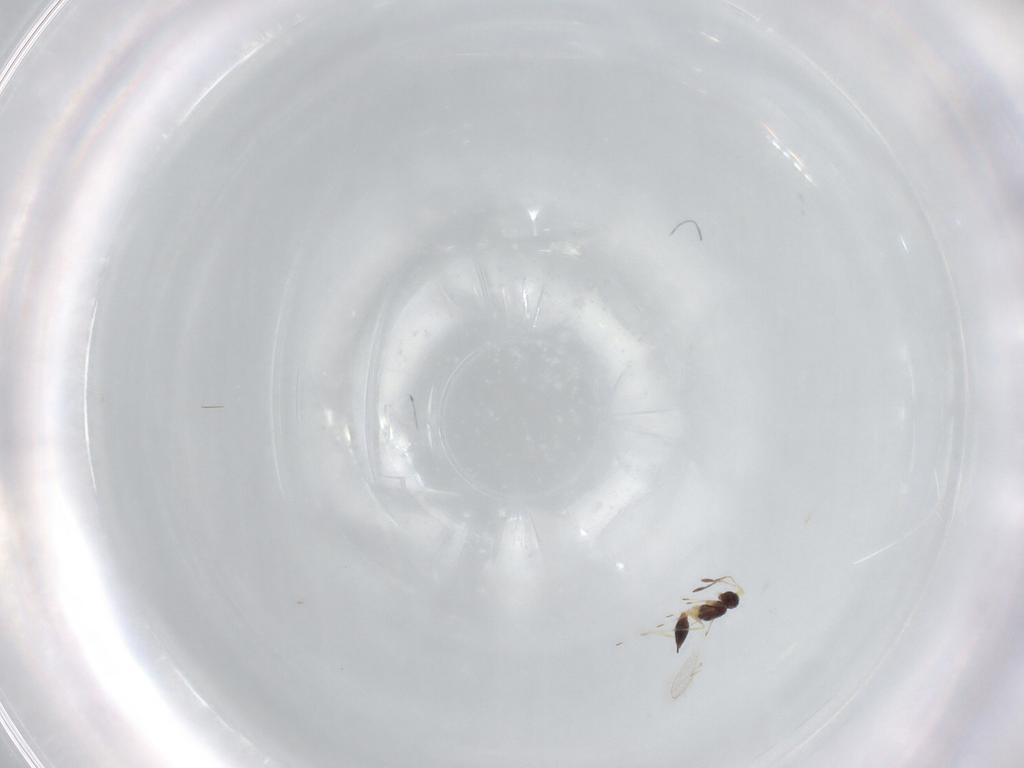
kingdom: Animalia
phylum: Arthropoda
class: Insecta
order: Hymenoptera
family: Mymaridae
